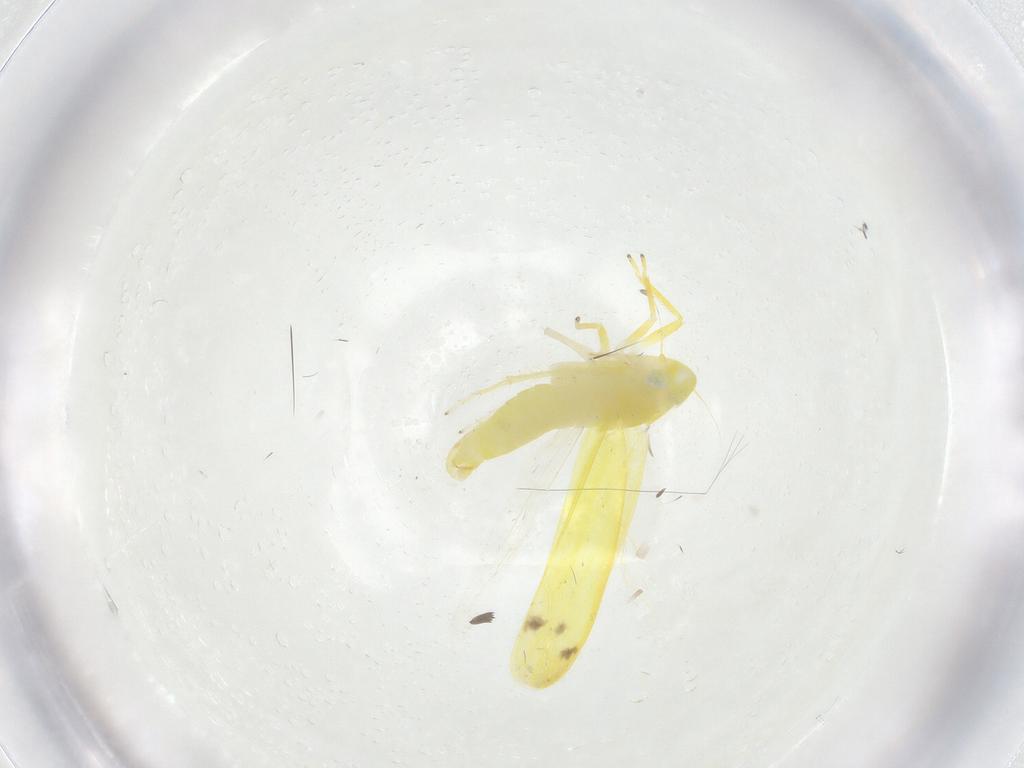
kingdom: Animalia
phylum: Arthropoda
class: Insecta
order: Hemiptera
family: Cicadellidae
